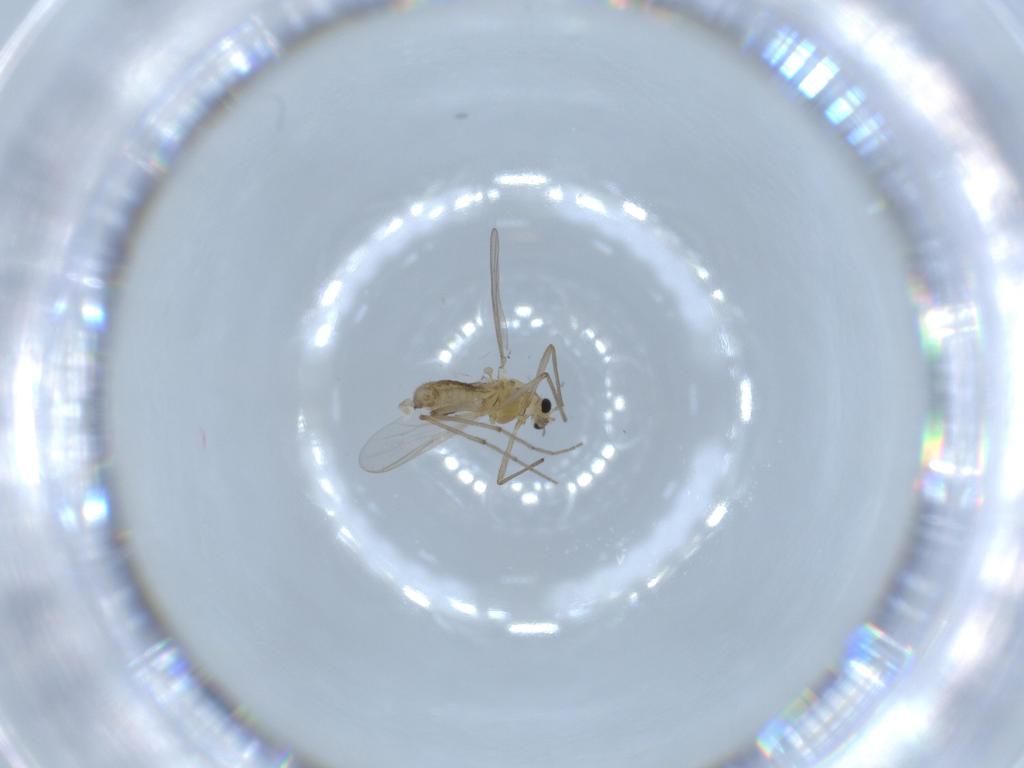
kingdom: Animalia
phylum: Arthropoda
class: Insecta
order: Diptera
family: Chironomidae
